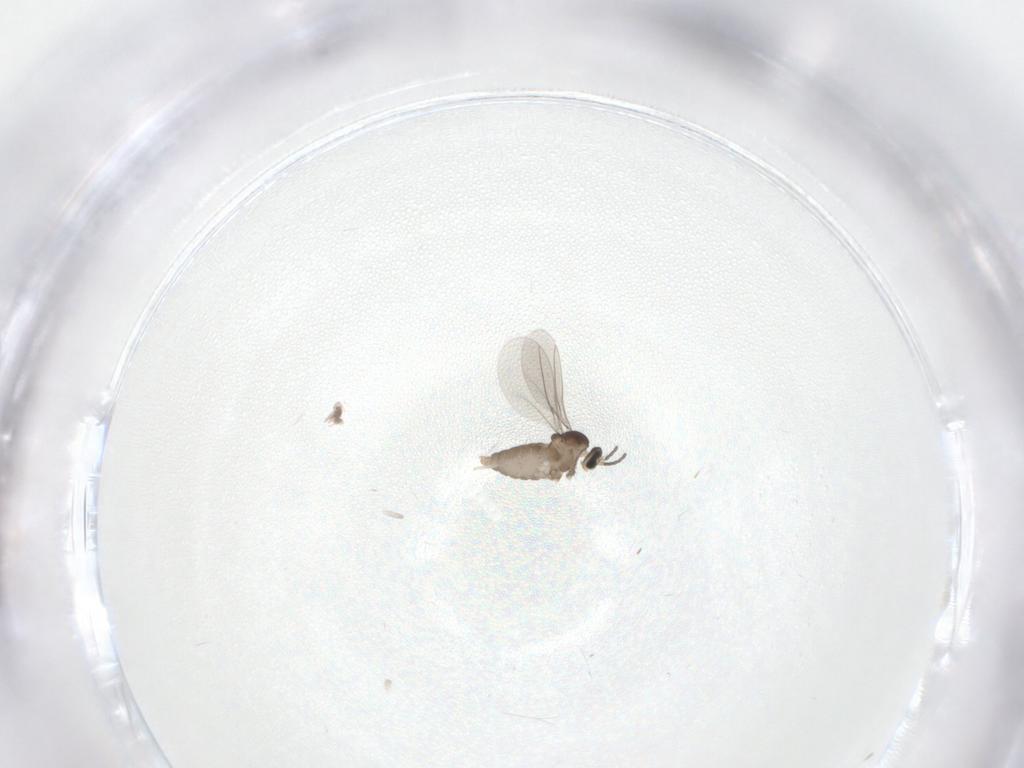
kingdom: Animalia
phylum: Arthropoda
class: Insecta
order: Diptera
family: Cecidomyiidae
